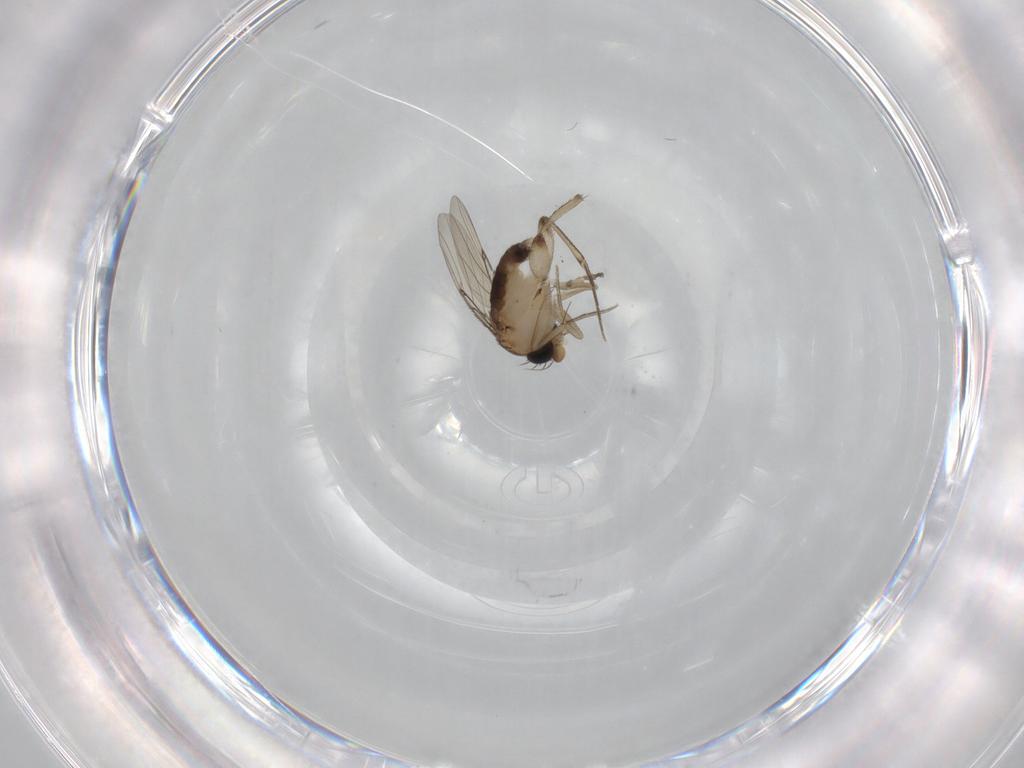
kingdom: Animalia
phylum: Arthropoda
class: Insecta
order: Diptera
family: Phoridae
